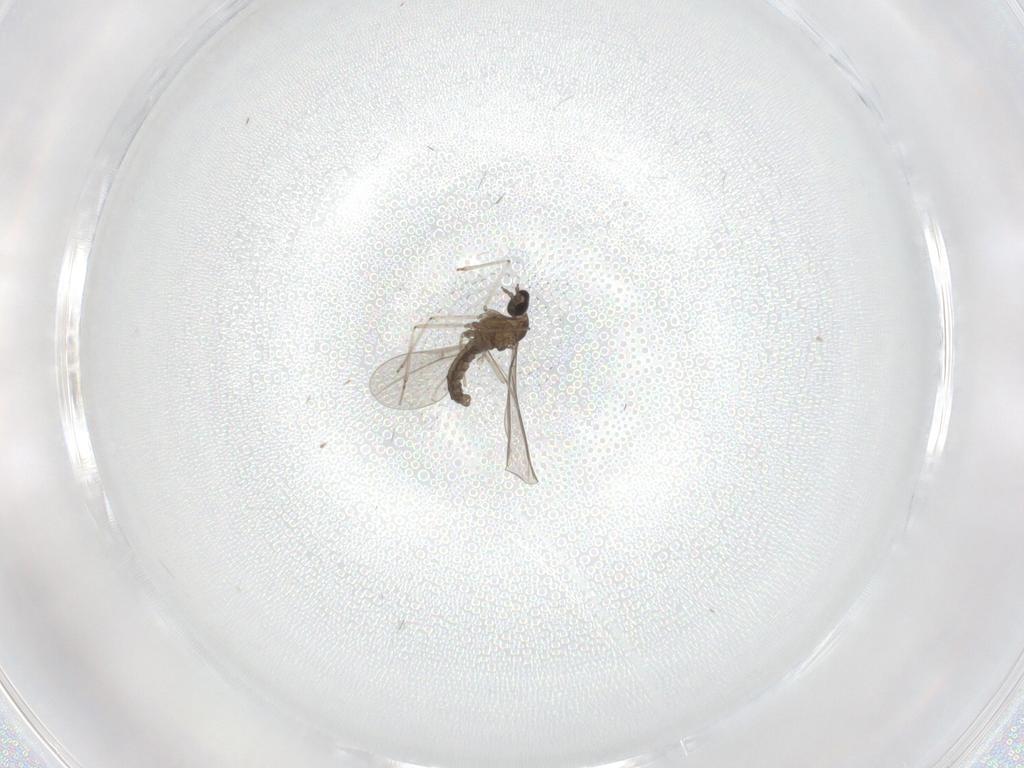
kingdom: Animalia
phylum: Arthropoda
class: Insecta
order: Diptera
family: Cecidomyiidae
